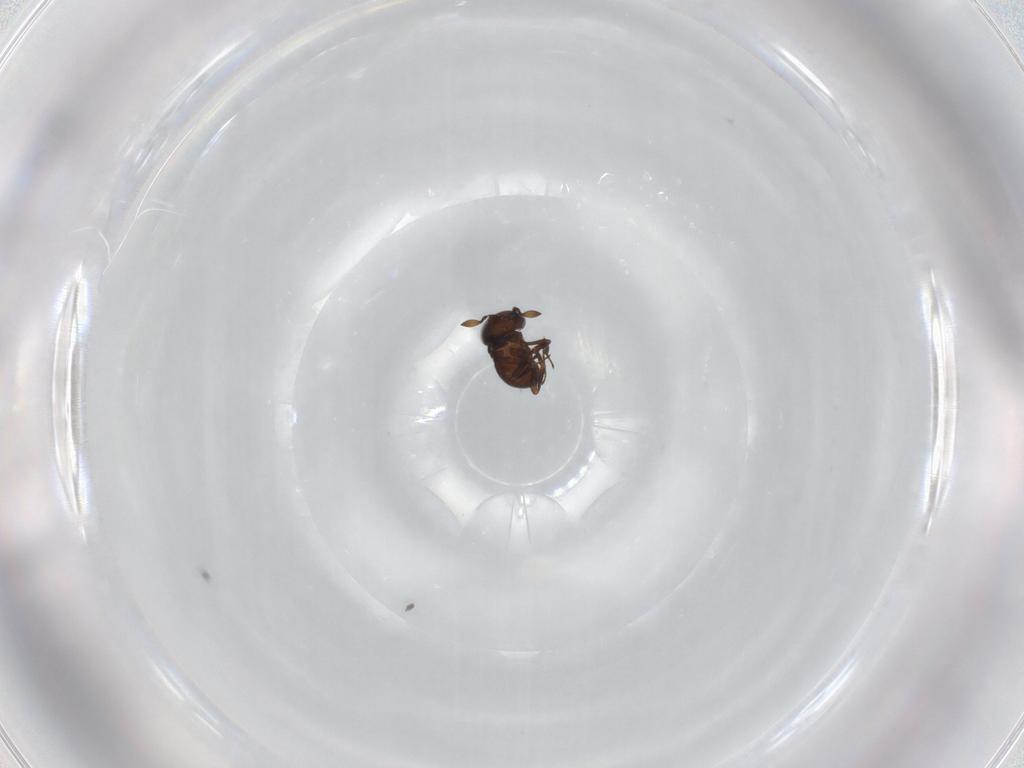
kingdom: Animalia
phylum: Arthropoda
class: Insecta
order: Hymenoptera
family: Scelionidae
